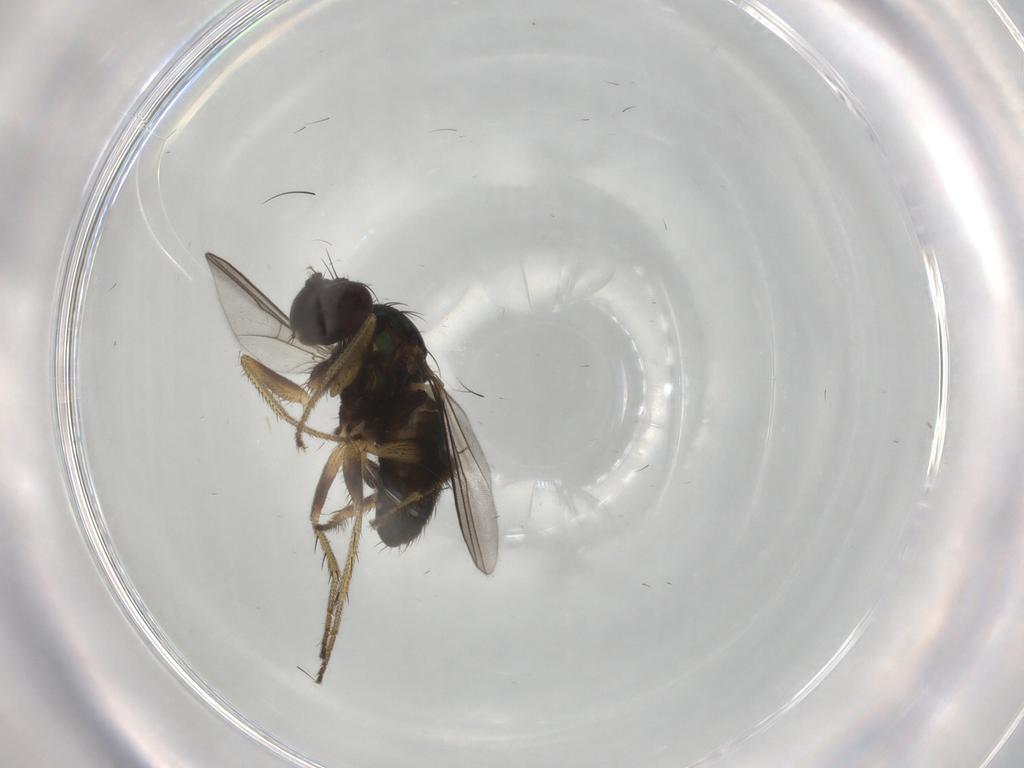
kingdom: Animalia
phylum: Arthropoda
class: Insecta
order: Diptera
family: Dolichopodidae
